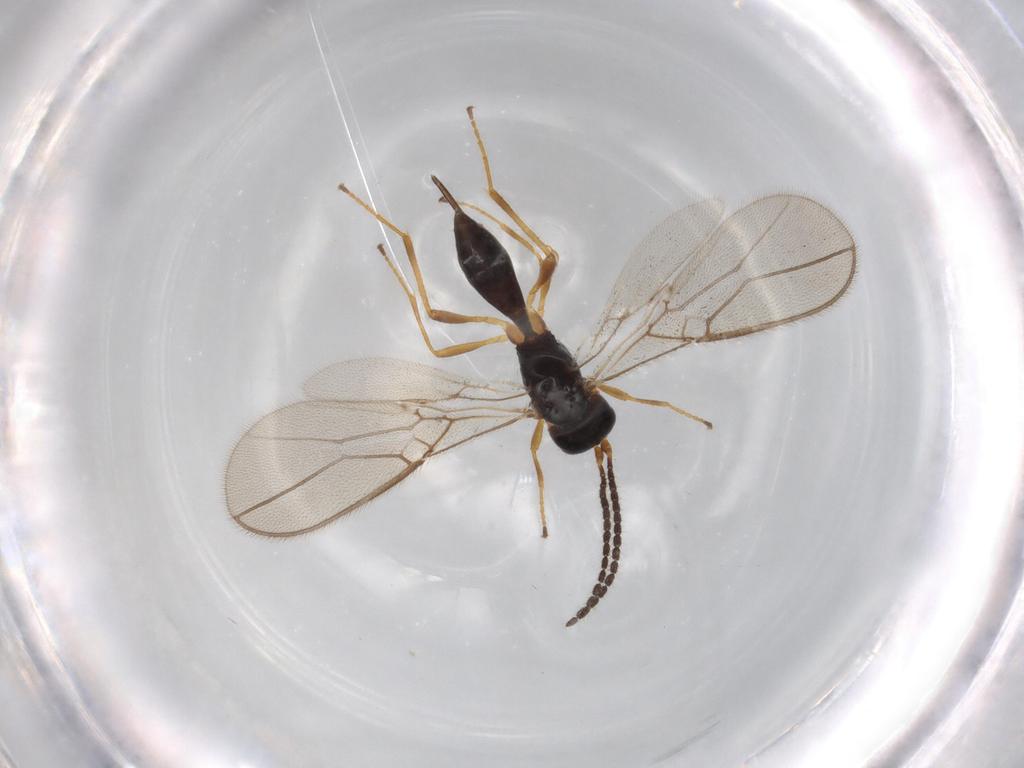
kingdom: Animalia
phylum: Arthropoda
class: Insecta
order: Hymenoptera
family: Braconidae
